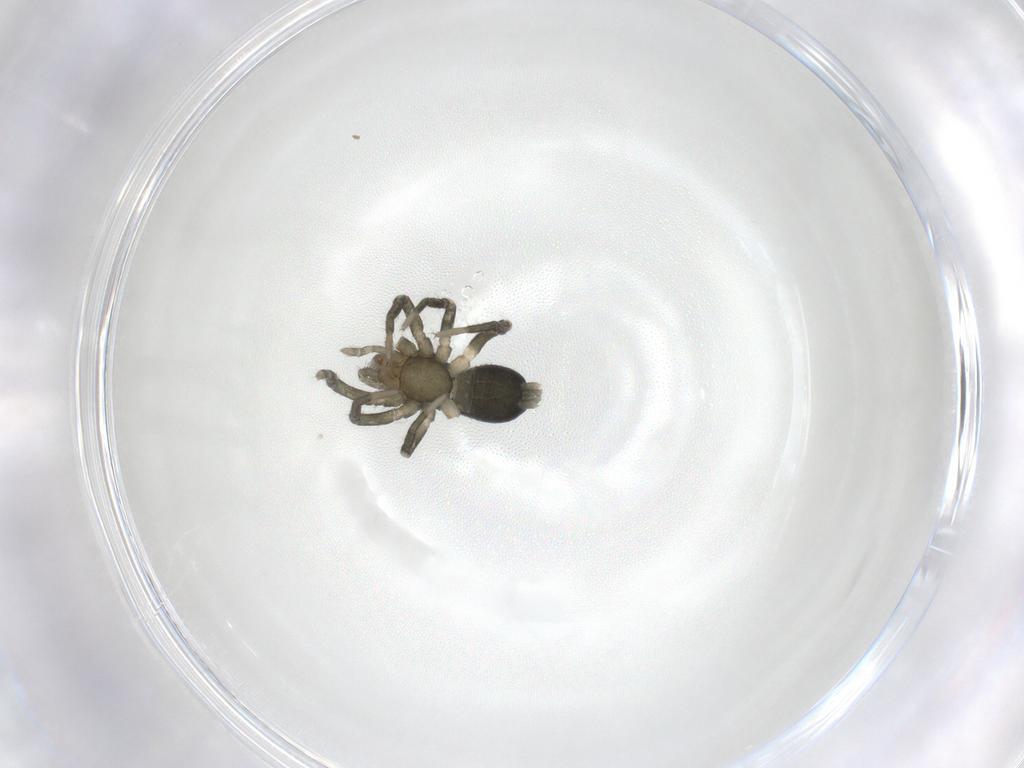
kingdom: Animalia
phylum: Arthropoda
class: Arachnida
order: Araneae
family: Gnaphosidae
